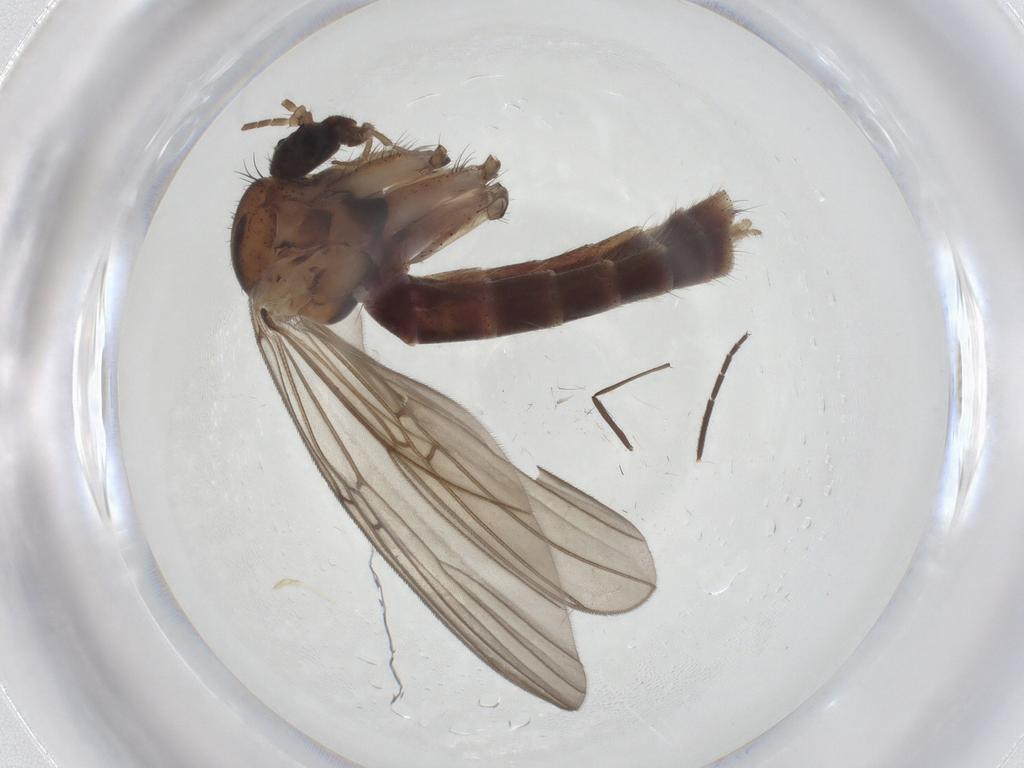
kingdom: Animalia
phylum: Arthropoda
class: Insecta
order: Diptera
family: Mycetophilidae
